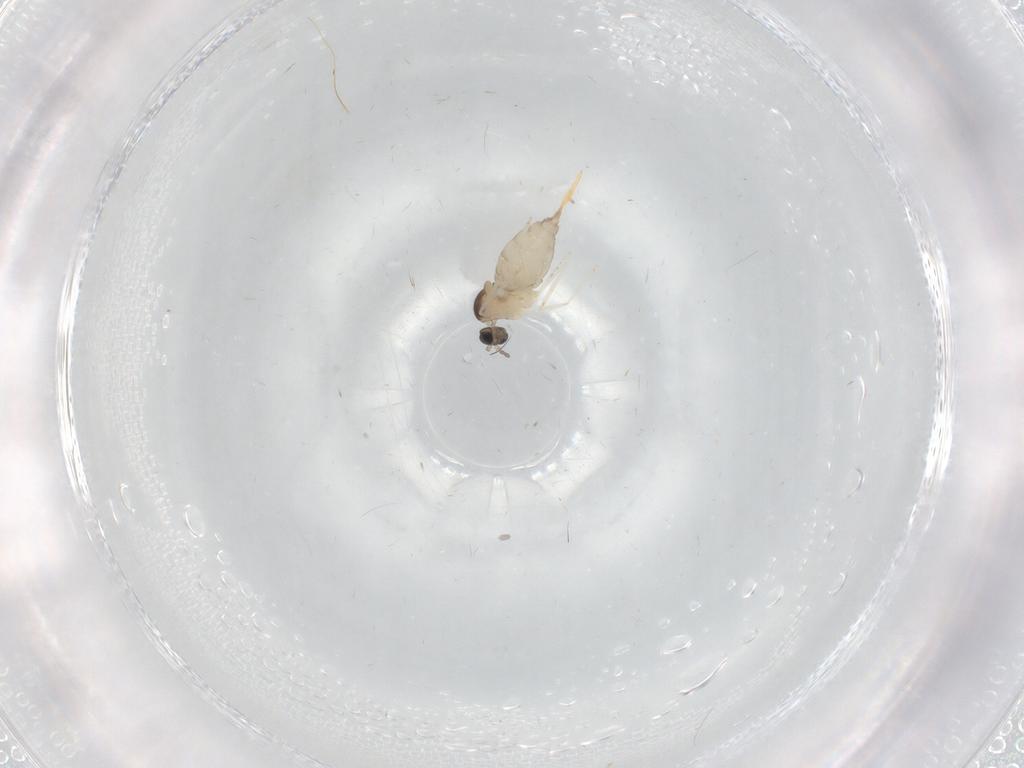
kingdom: Animalia
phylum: Arthropoda
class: Insecta
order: Diptera
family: Cecidomyiidae
